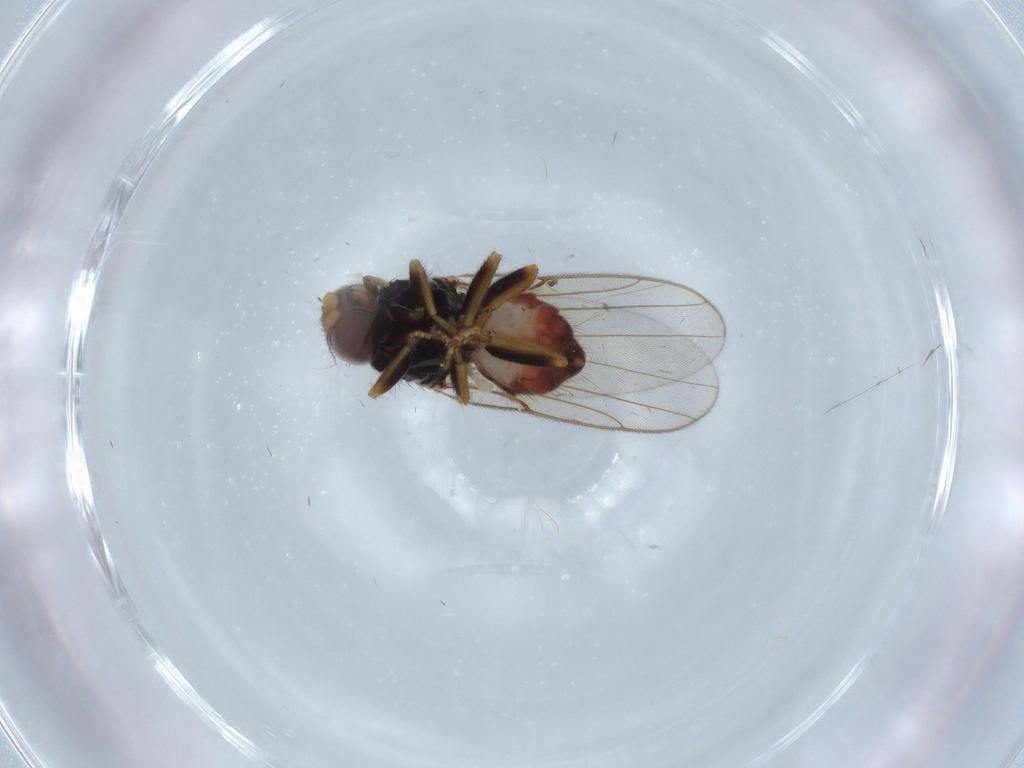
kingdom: Animalia
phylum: Arthropoda
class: Insecta
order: Diptera
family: Chloropidae
